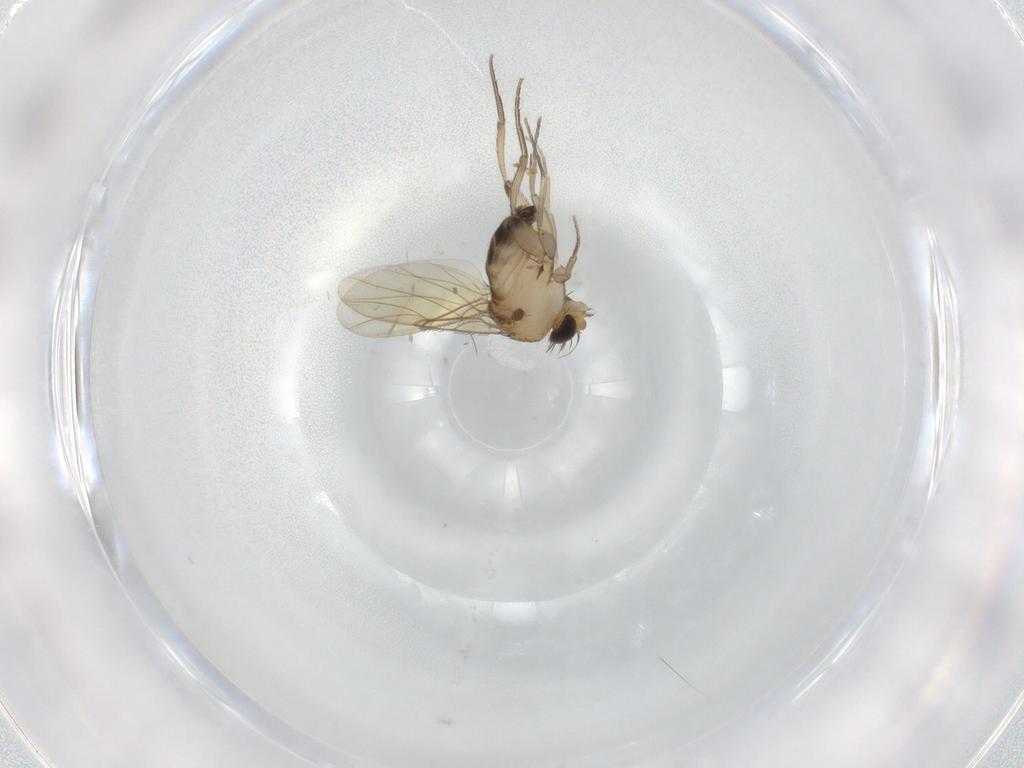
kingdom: Animalia
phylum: Arthropoda
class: Insecta
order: Diptera
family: Phoridae
